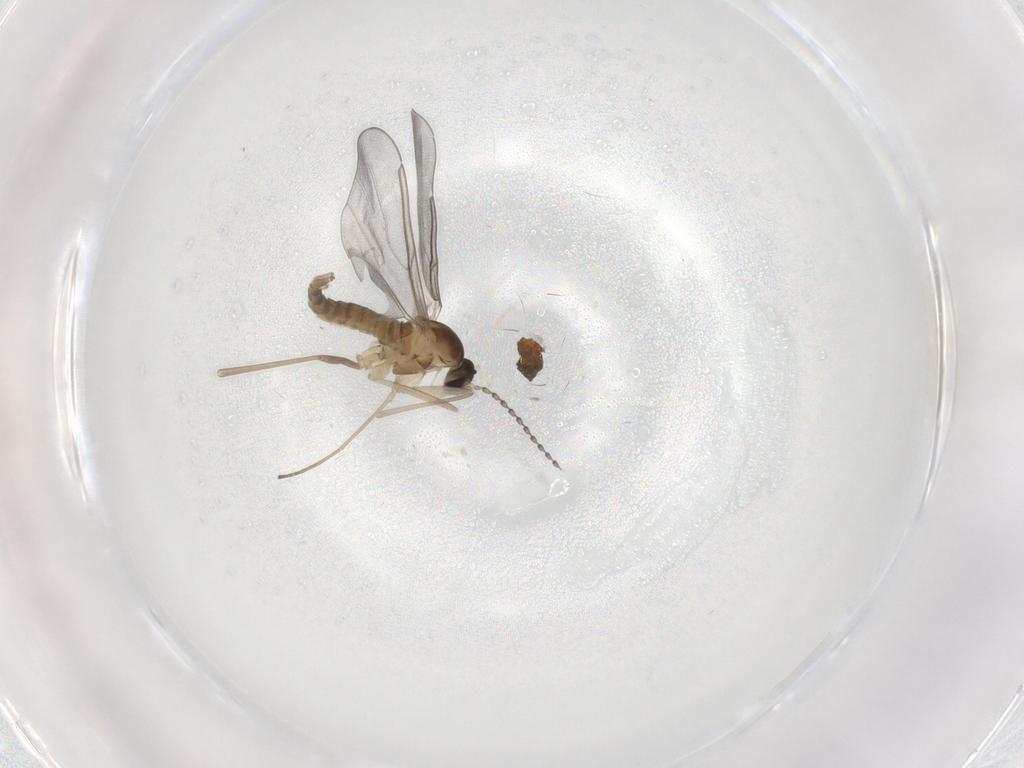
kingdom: Animalia
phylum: Arthropoda
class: Insecta
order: Diptera
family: Cecidomyiidae
